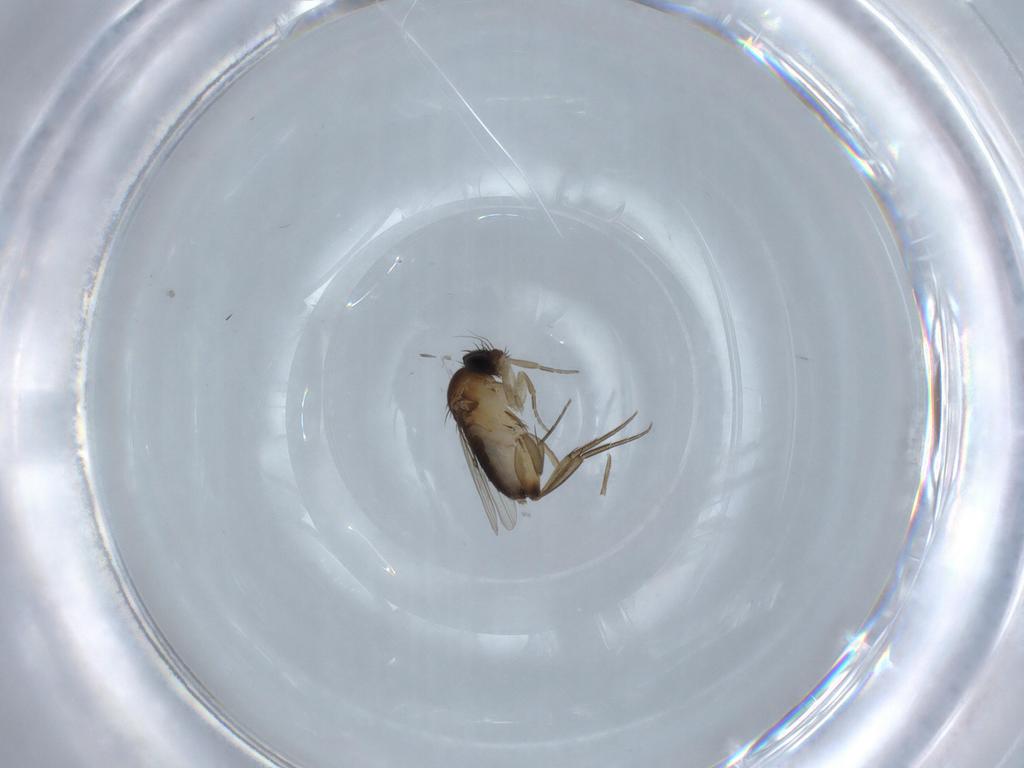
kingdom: Animalia
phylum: Arthropoda
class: Insecta
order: Diptera
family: Phoridae
